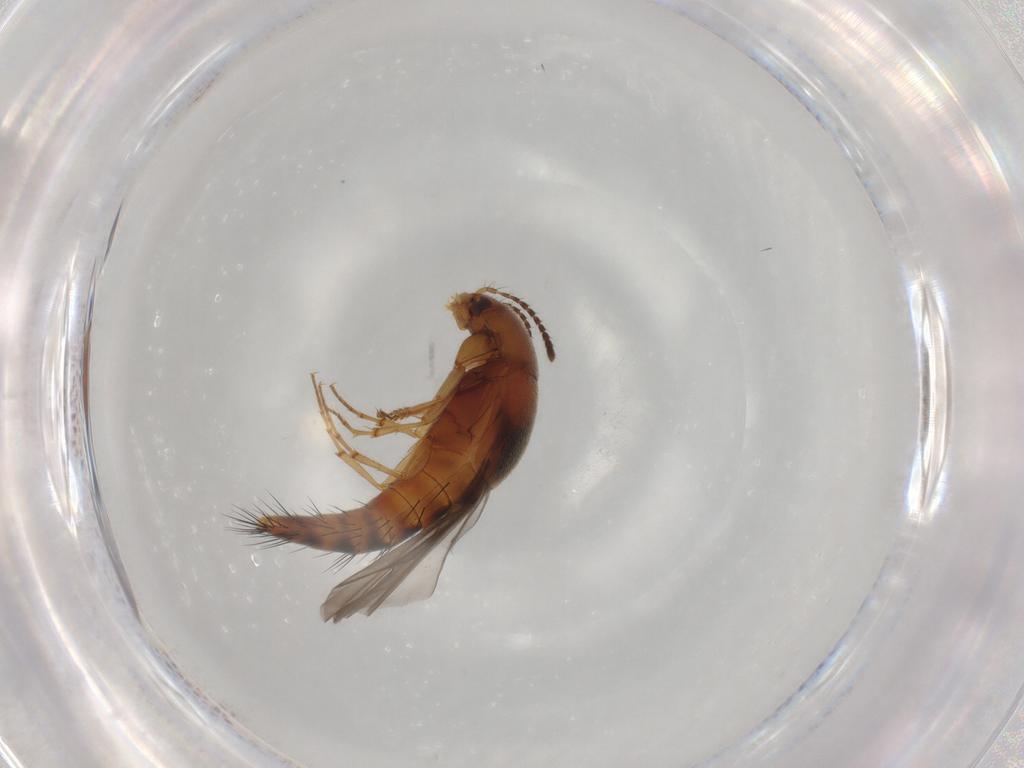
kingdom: Animalia
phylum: Arthropoda
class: Insecta
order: Coleoptera
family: Staphylinidae
